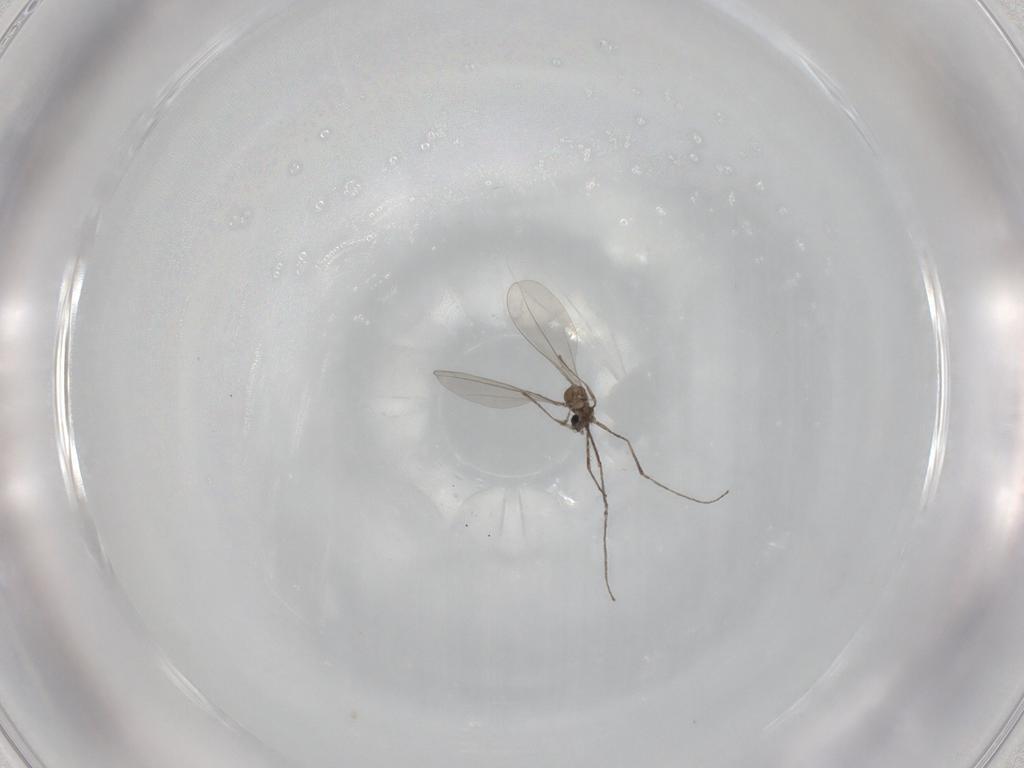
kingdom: Animalia
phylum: Arthropoda
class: Insecta
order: Diptera
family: Cecidomyiidae
